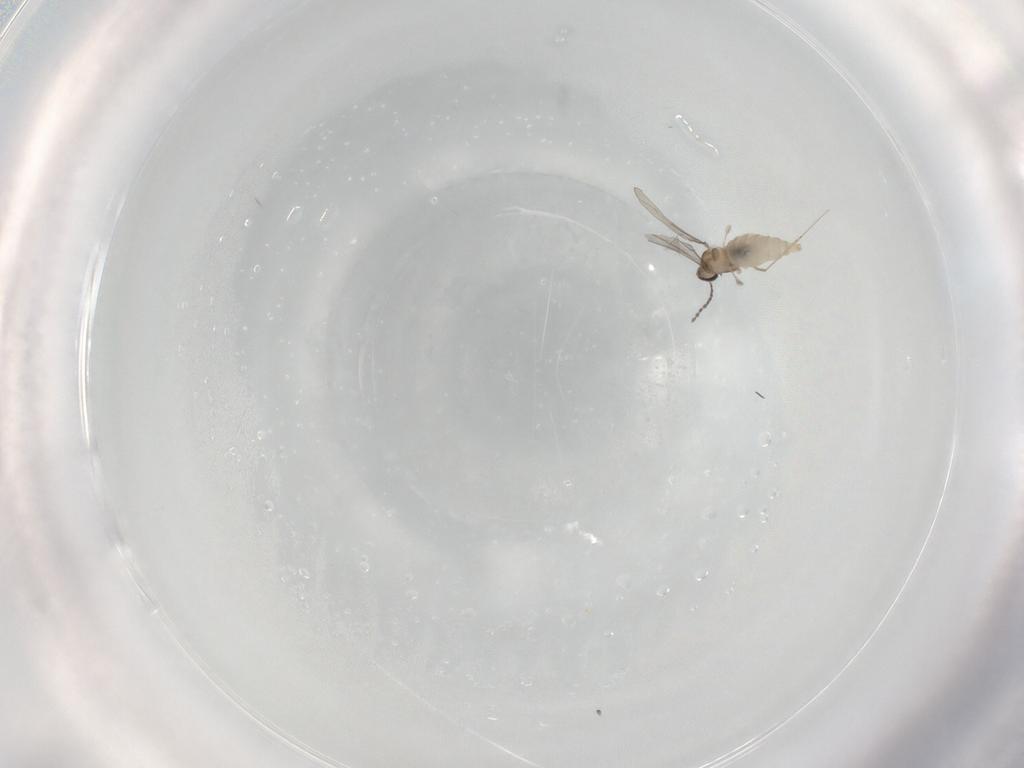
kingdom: Animalia
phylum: Arthropoda
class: Insecta
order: Diptera
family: Cecidomyiidae
